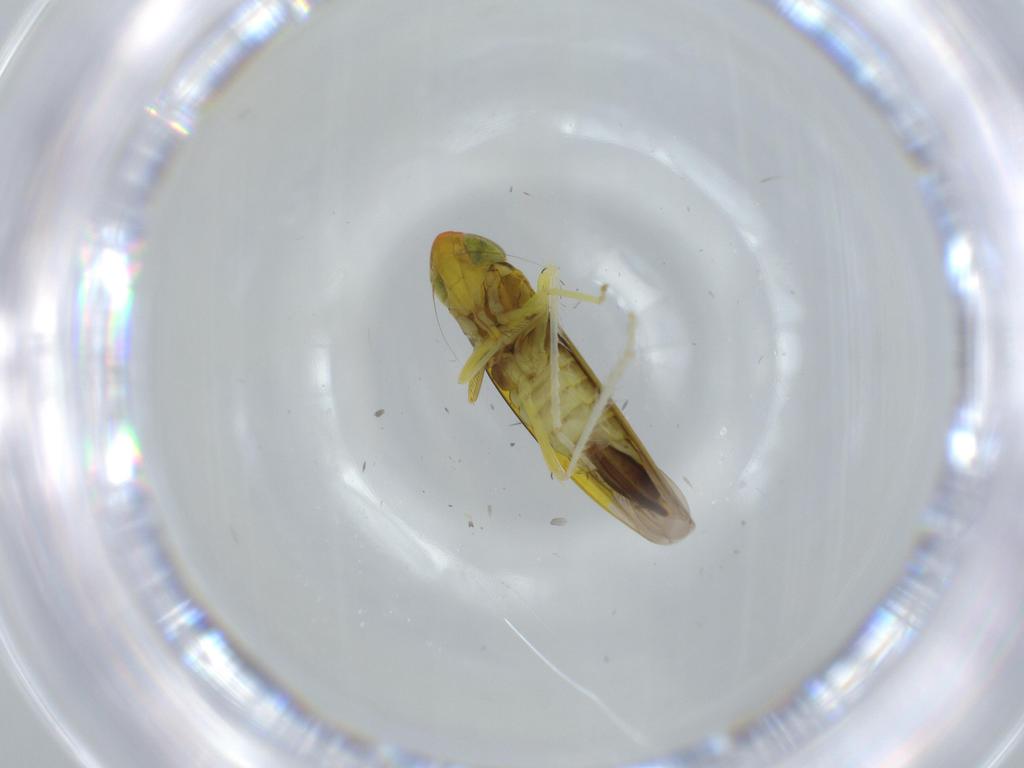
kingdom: Animalia
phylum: Arthropoda
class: Insecta
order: Hemiptera
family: Cicadellidae
